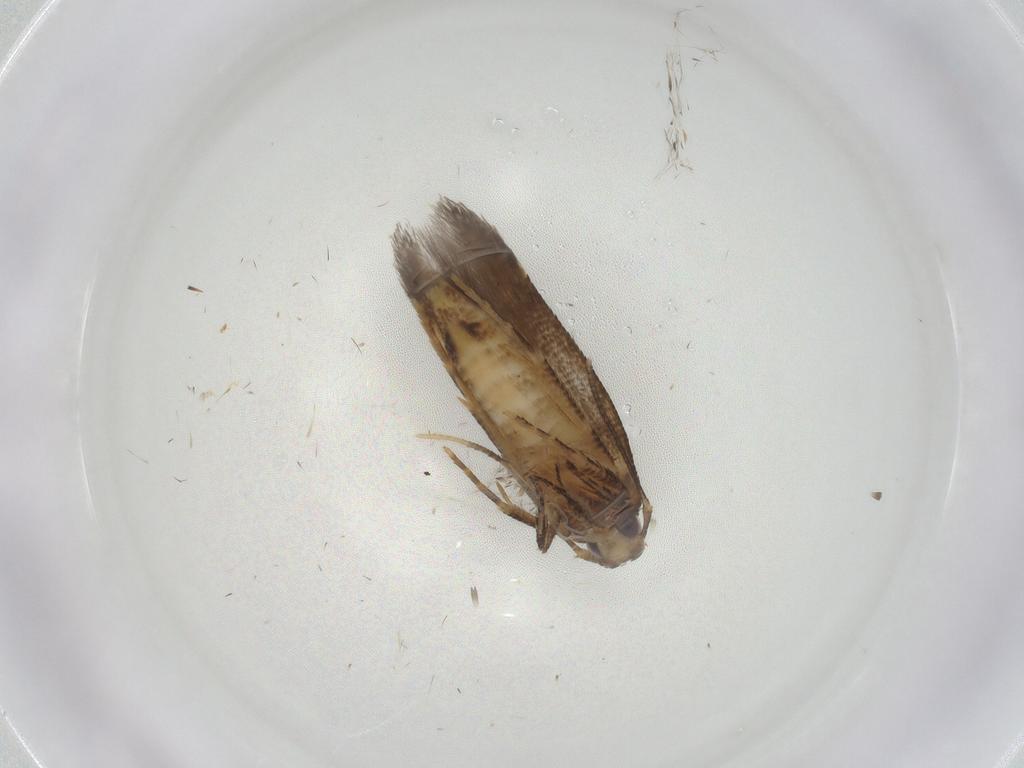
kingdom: Animalia
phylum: Arthropoda
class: Insecta
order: Lepidoptera
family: Cosmopterigidae
